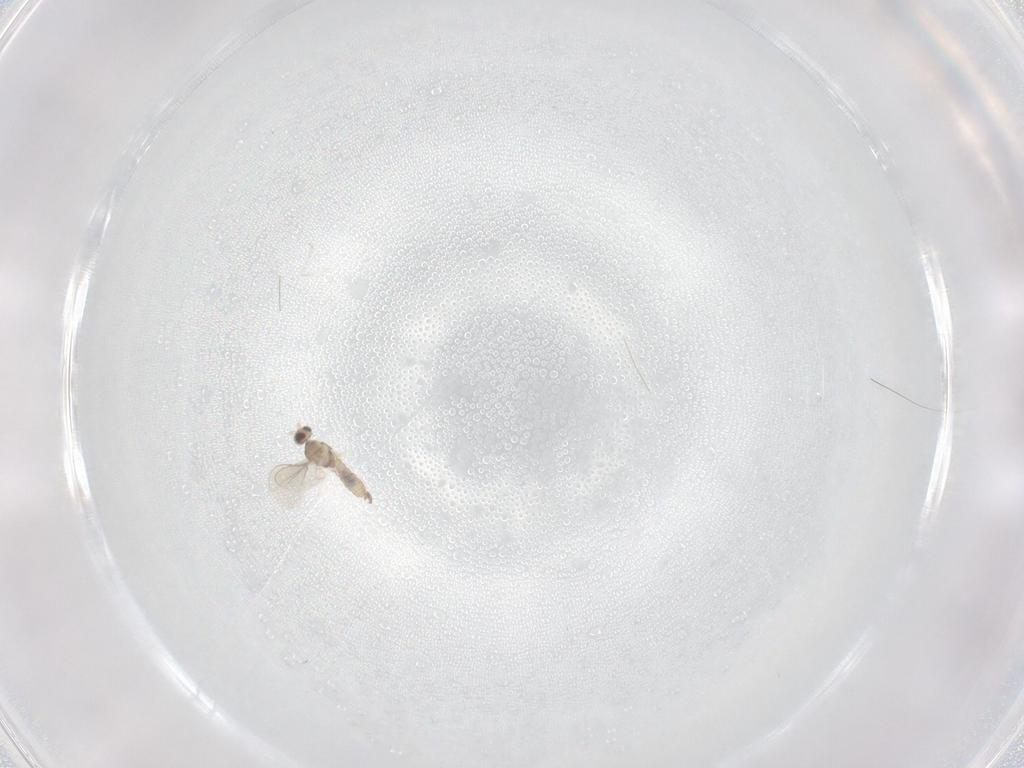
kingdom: Animalia
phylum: Arthropoda
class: Insecta
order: Diptera
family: Cecidomyiidae
